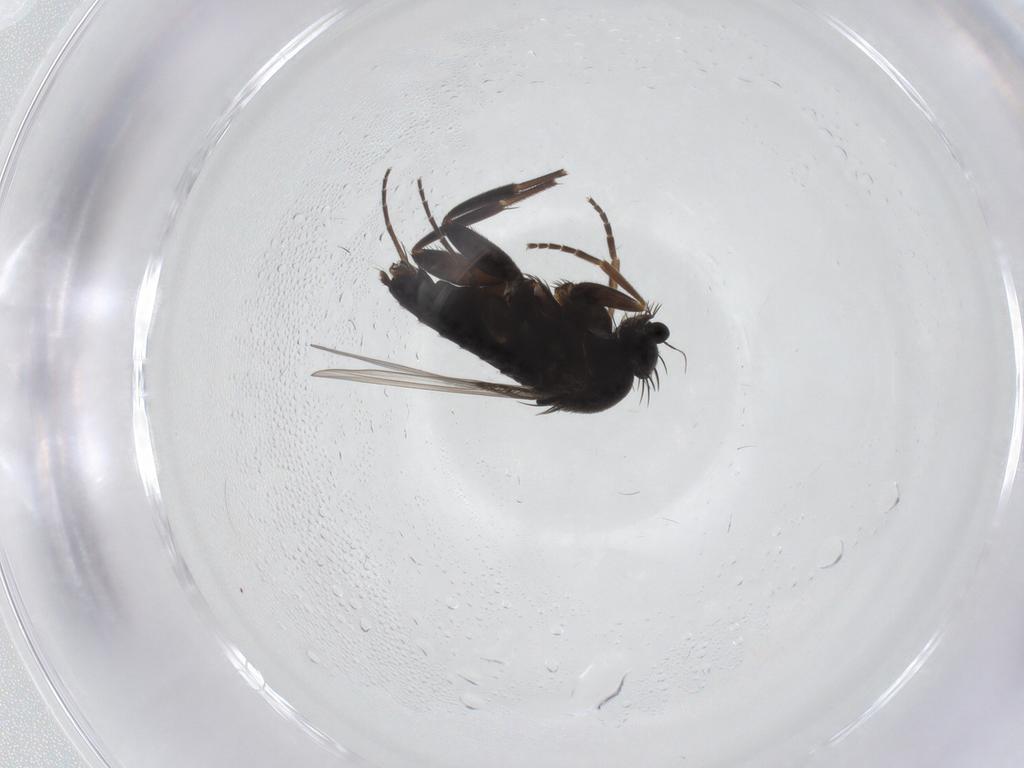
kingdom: Animalia
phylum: Arthropoda
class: Insecta
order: Diptera
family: Phoridae
